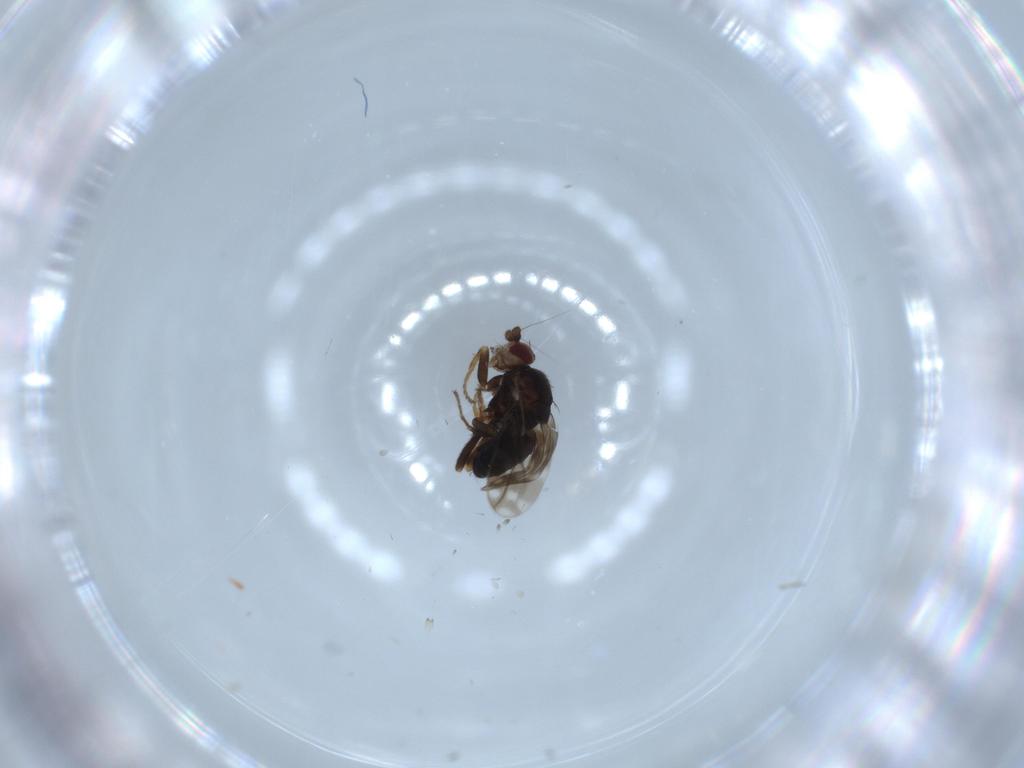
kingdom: Animalia
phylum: Arthropoda
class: Insecta
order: Diptera
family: Sphaeroceridae
